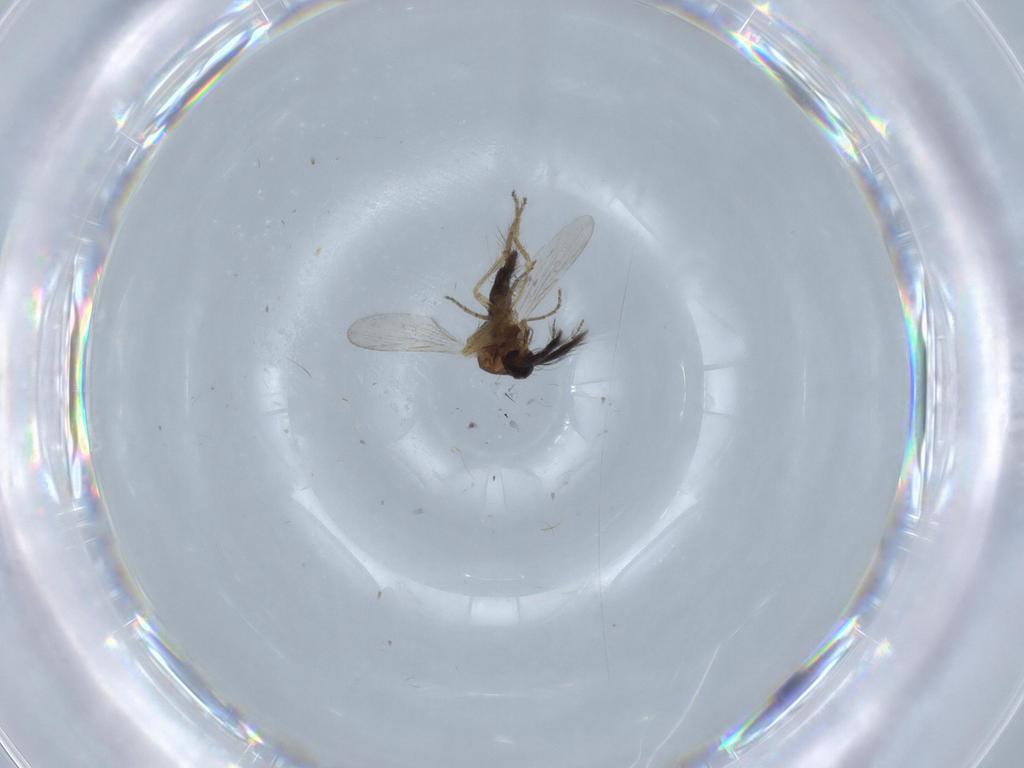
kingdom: Animalia
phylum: Arthropoda
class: Insecta
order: Diptera
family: Ceratopogonidae
